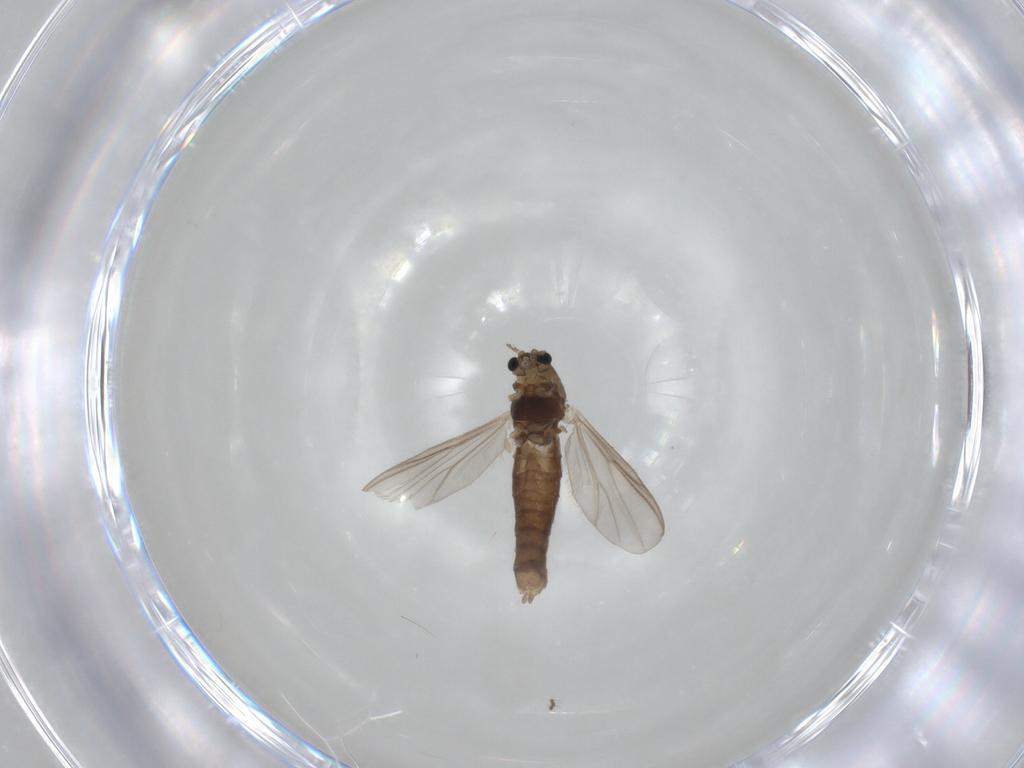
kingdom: Animalia
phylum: Arthropoda
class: Insecta
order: Diptera
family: Chironomidae
